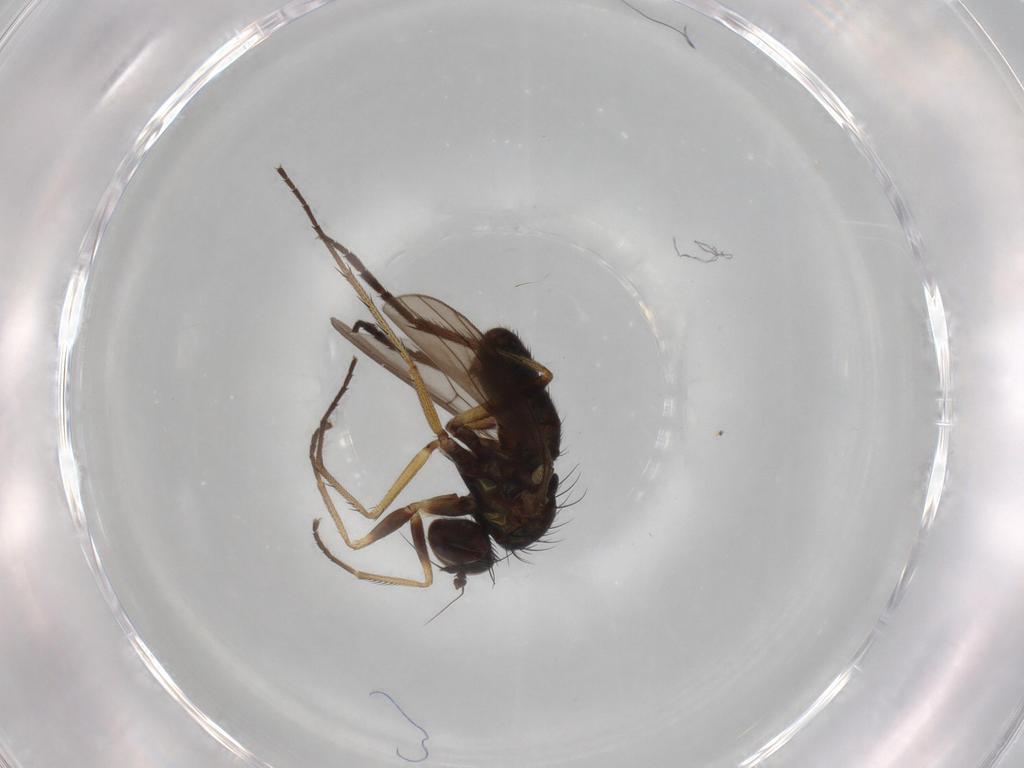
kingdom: Animalia
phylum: Arthropoda
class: Insecta
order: Diptera
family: Dolichopodidae
